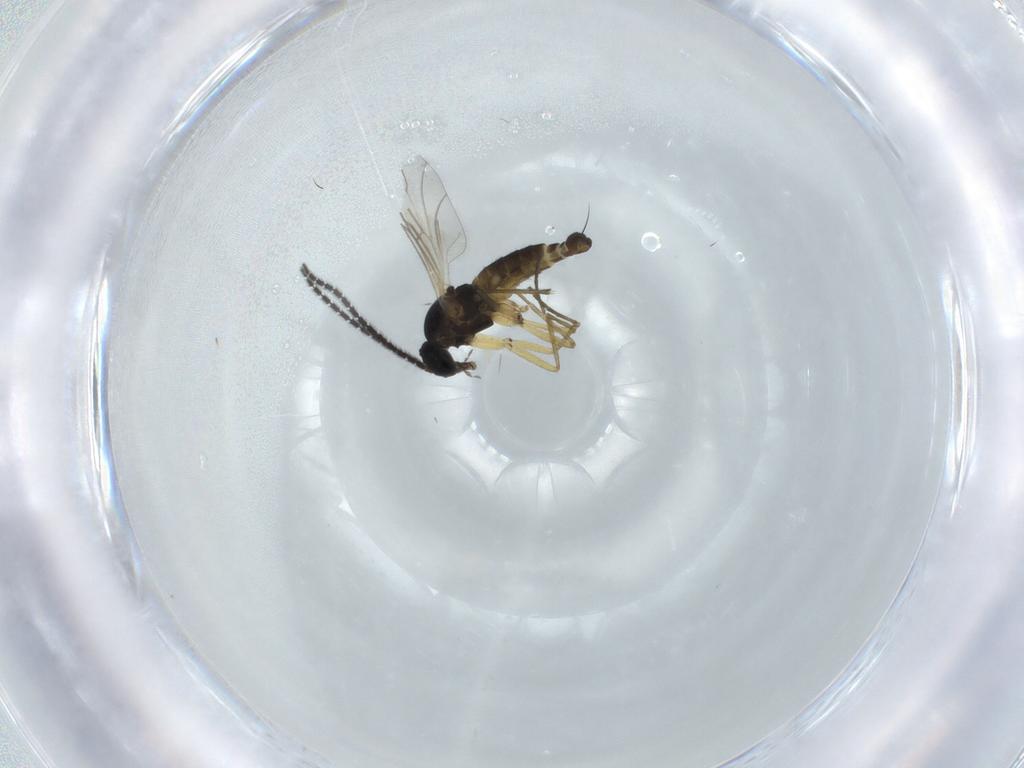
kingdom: Animalia
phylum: Arthropoda
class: Insecta
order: Diptera
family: Sciaridae
